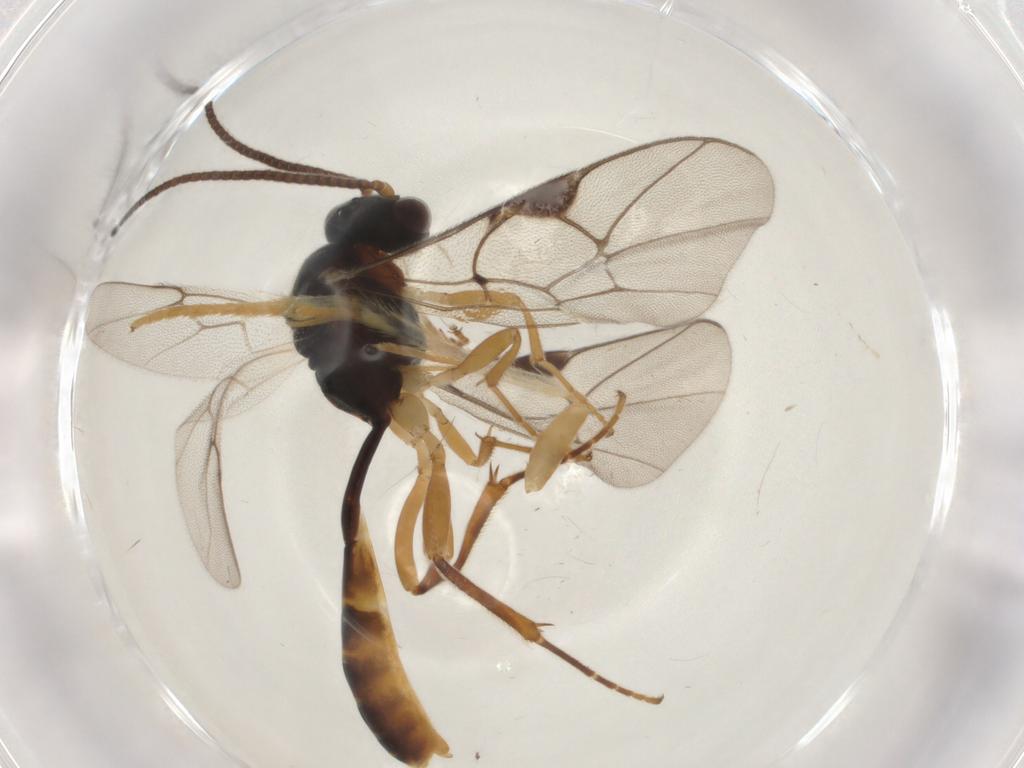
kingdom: Animalia
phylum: Arthropoda
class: Insecta
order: Hymenoptera
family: Ichneumonidae
